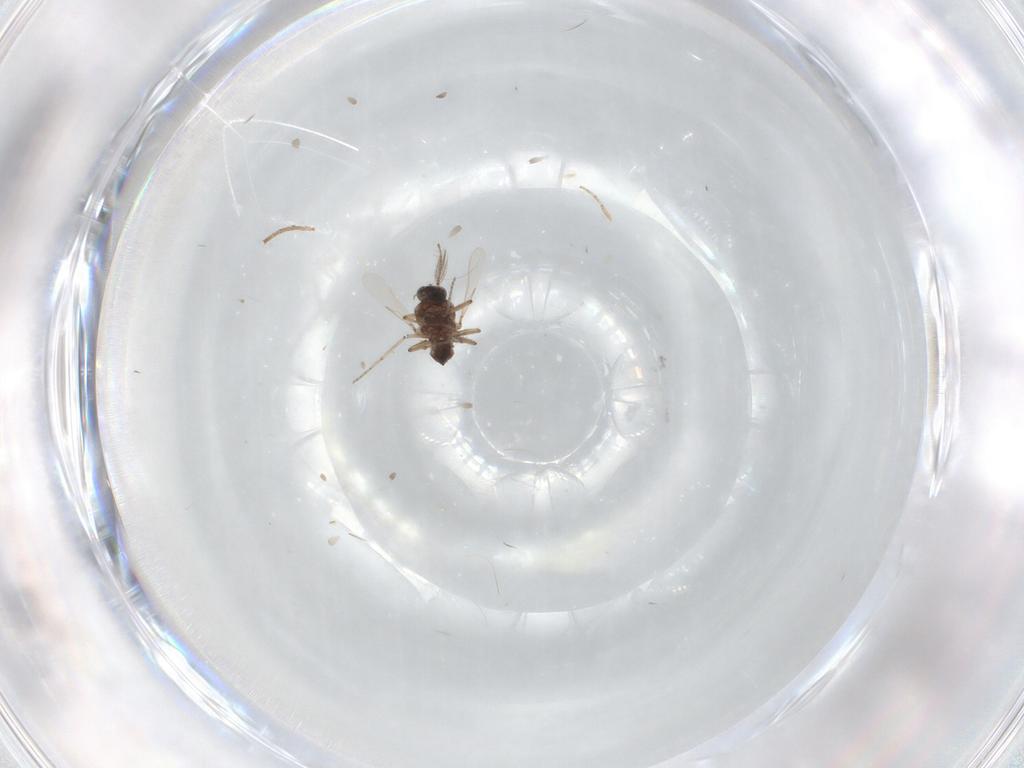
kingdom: Animalia
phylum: Arthropoda
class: Insecta
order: Diptera
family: Ceratopogonidae
